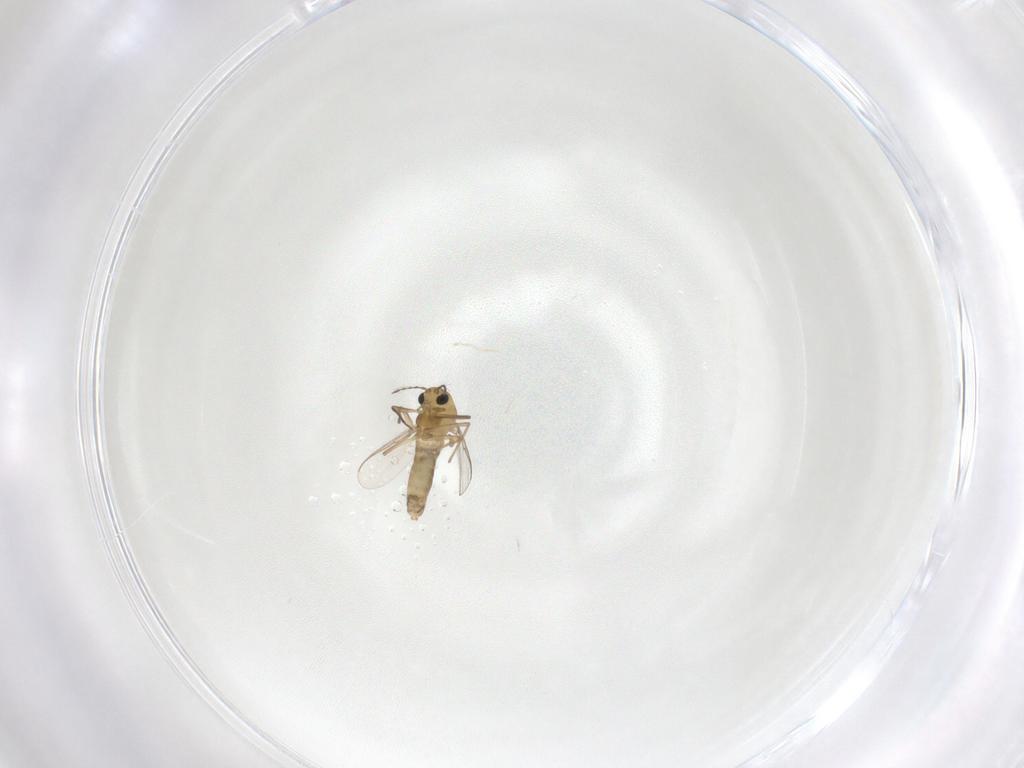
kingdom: Animalia
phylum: Arthropoda
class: Insecta
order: Diptera
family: Chironomidae
